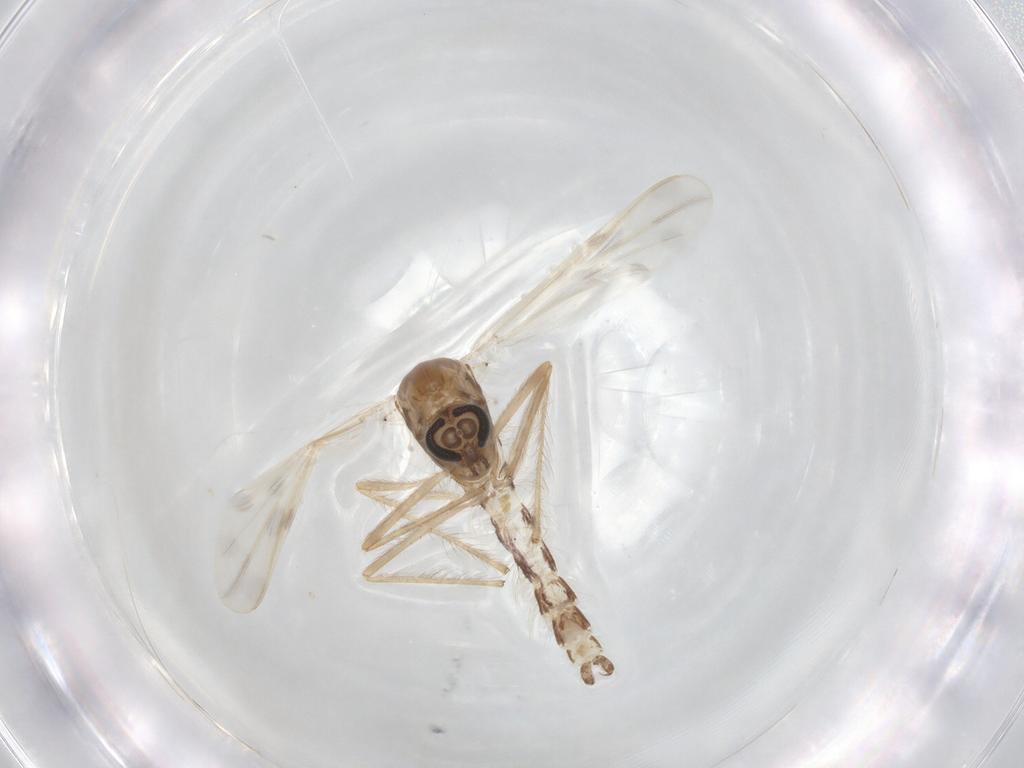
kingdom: Animalia
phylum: Arthropoda
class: Insecta
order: Diptera
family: Chironomidae
